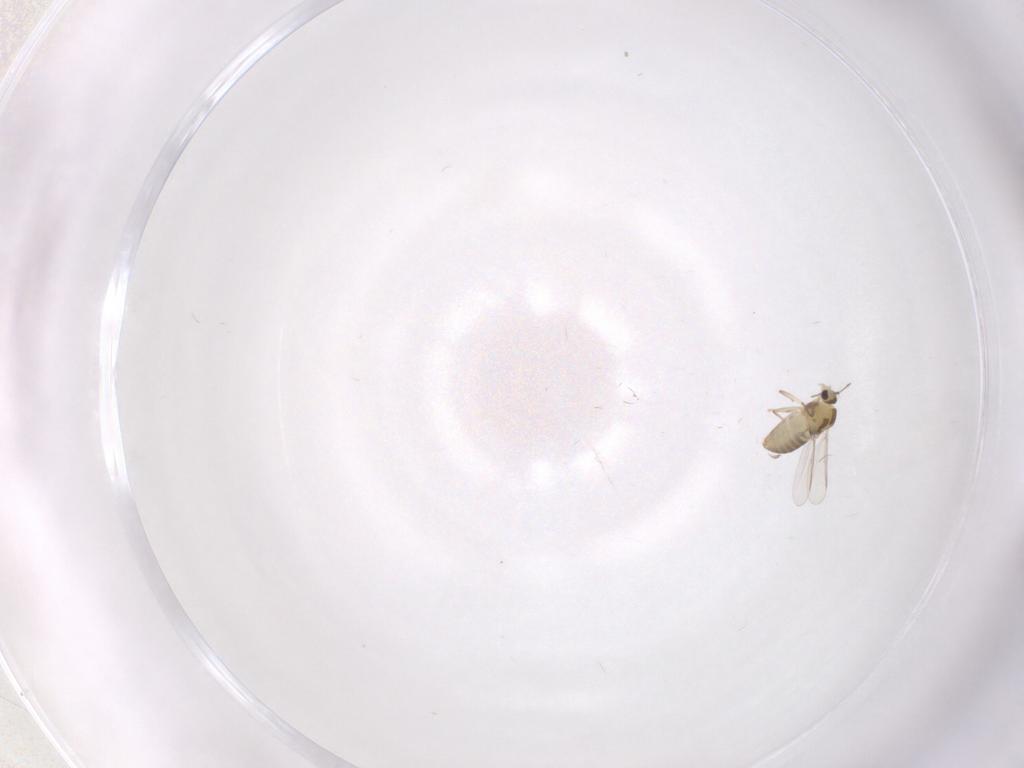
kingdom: Animalia
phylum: Arthropoda
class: Insecta
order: Diptera
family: Chironomidae
